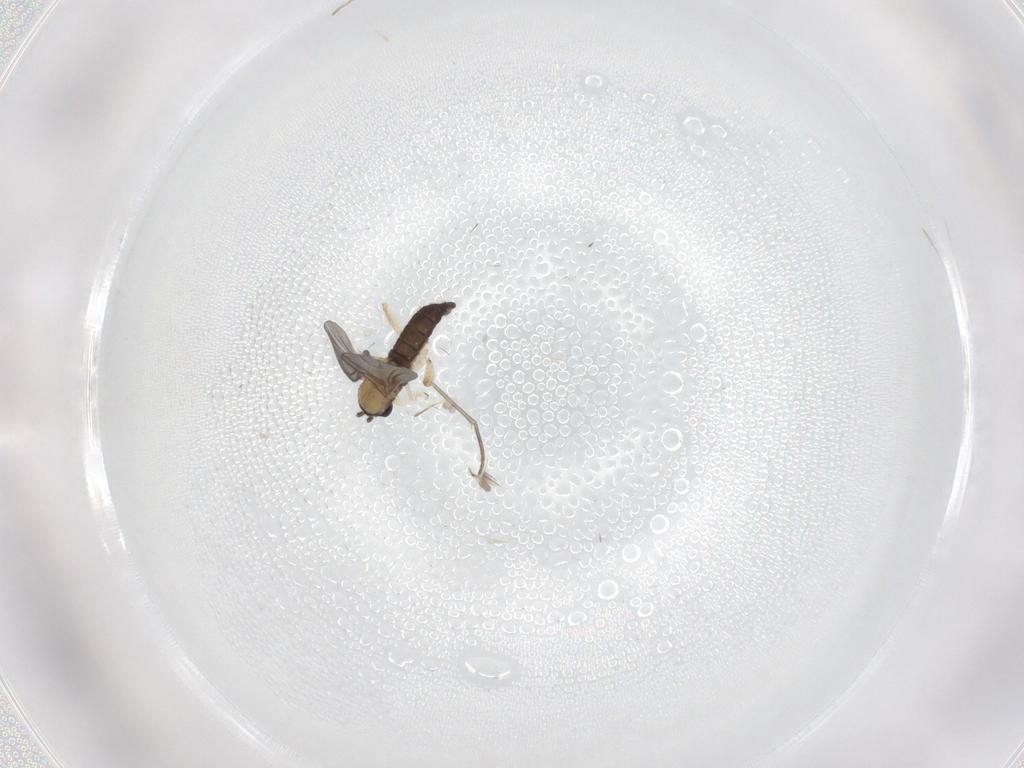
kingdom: Animalia
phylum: Arthropoda
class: Insecta
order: Diptera
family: Sciaridae
